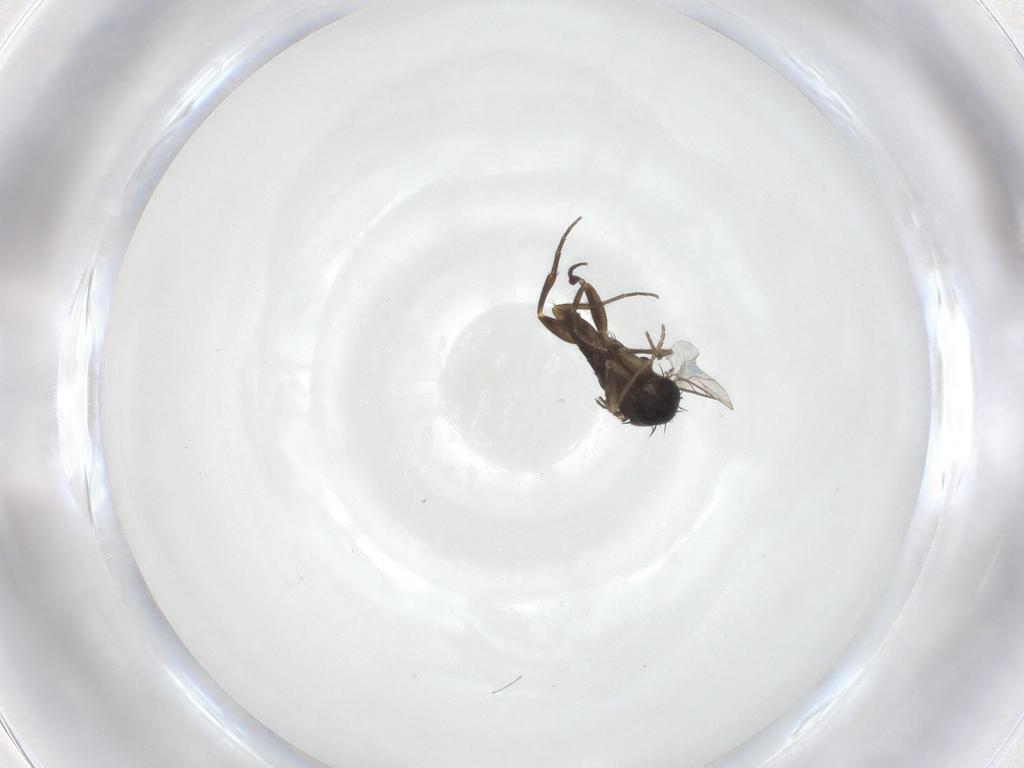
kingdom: Animalia
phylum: Arthropoda
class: Insecta
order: Diptera
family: Phoridae
